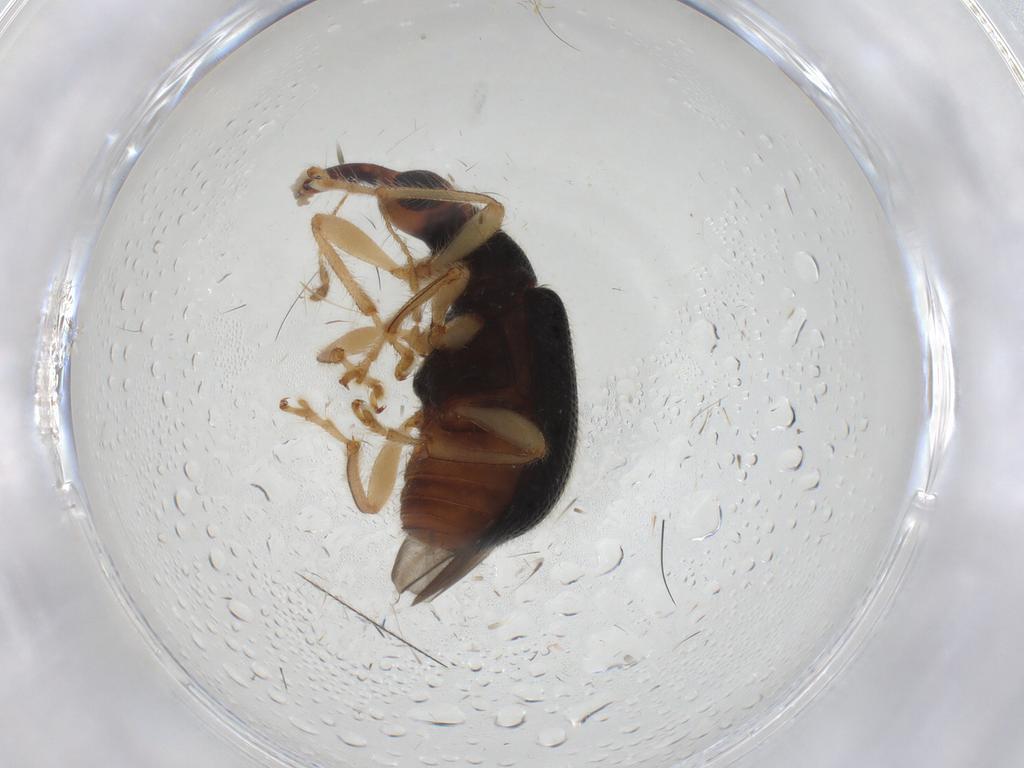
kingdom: Animalia
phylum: Arthropoda
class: Insecta
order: Coleoptera
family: Attelabidae
